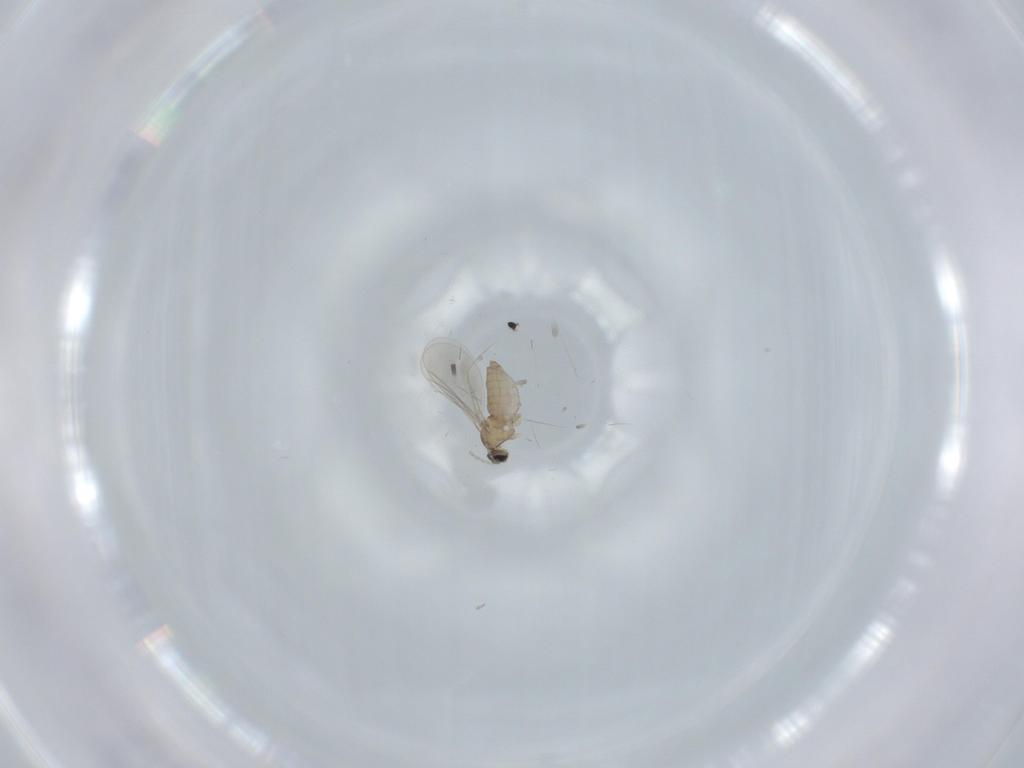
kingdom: Animalia
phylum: Arthropoda
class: Insecta
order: Diptera
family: Cecidomyiidae
